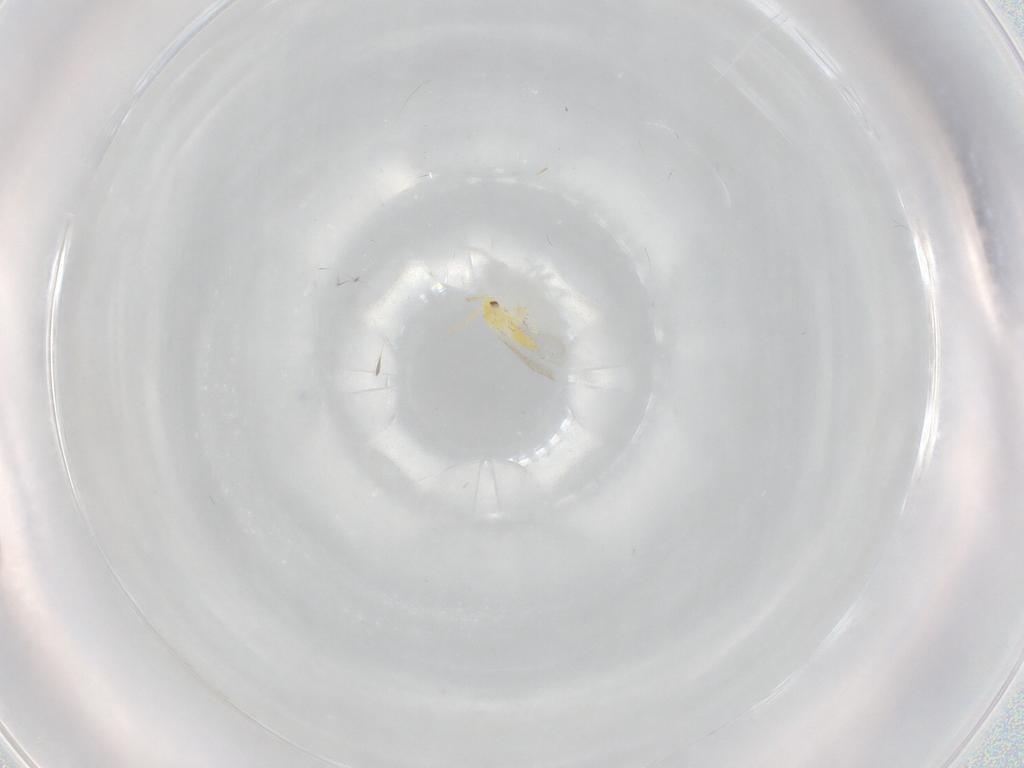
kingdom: Animalia
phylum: Arthropoda
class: Insecta
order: Hemiptera
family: Aleyrodidae
